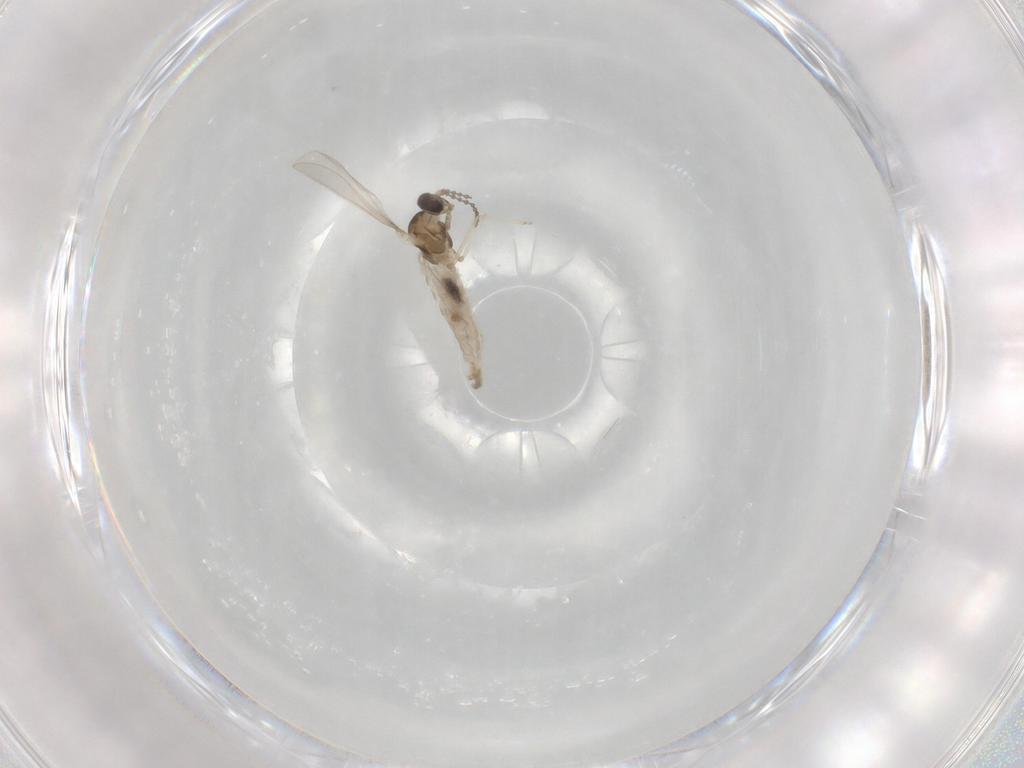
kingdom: Animalia
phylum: Arthropoda
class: Insecta
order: Diptera
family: Cecidomyiidae
